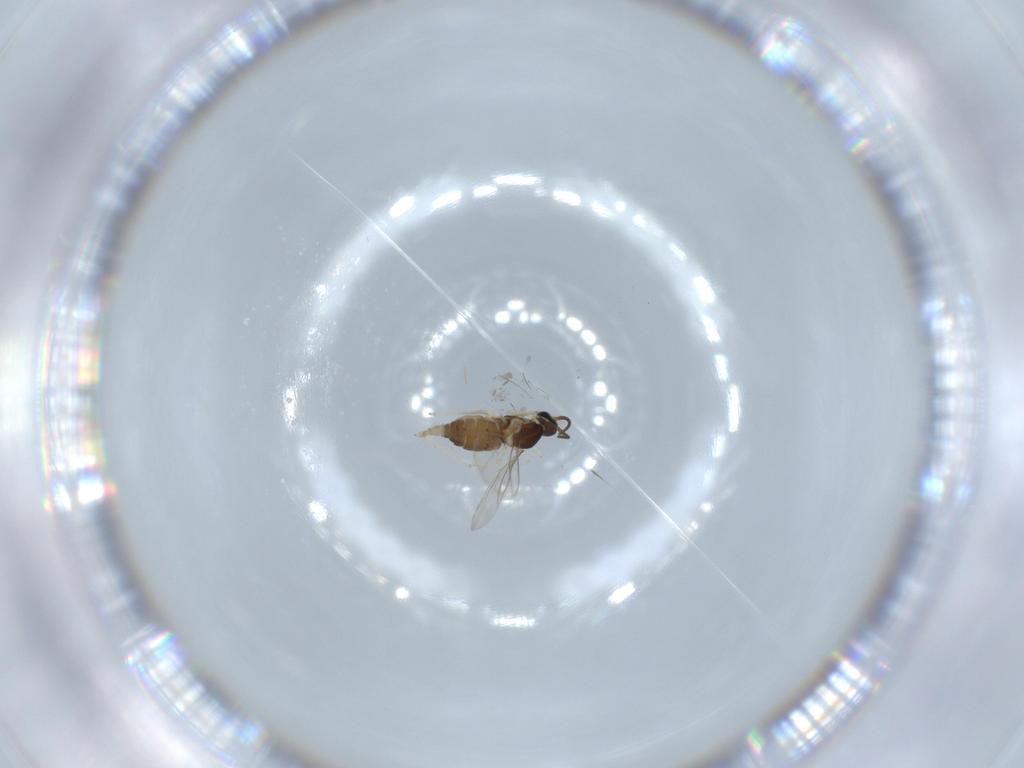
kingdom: Animalia
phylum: Arthropoda
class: Insecta
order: Diptera
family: Cecidomyiidae
